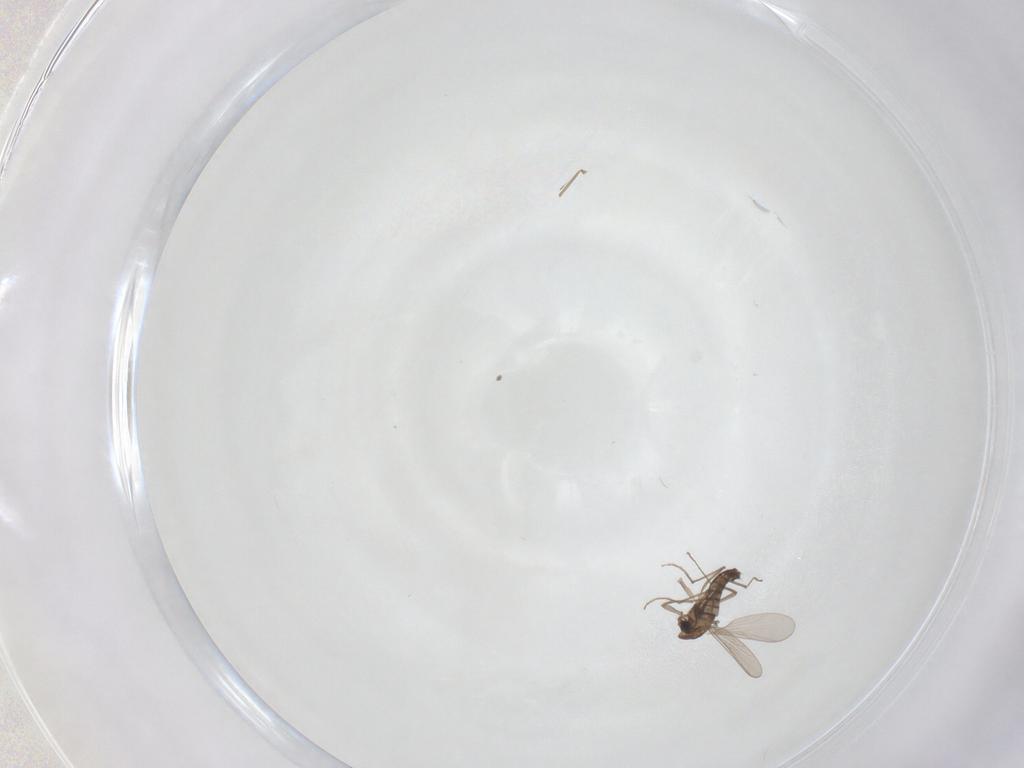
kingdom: Animalia
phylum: Arthropoda
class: Insecta
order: Diptera
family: Chironomidae
